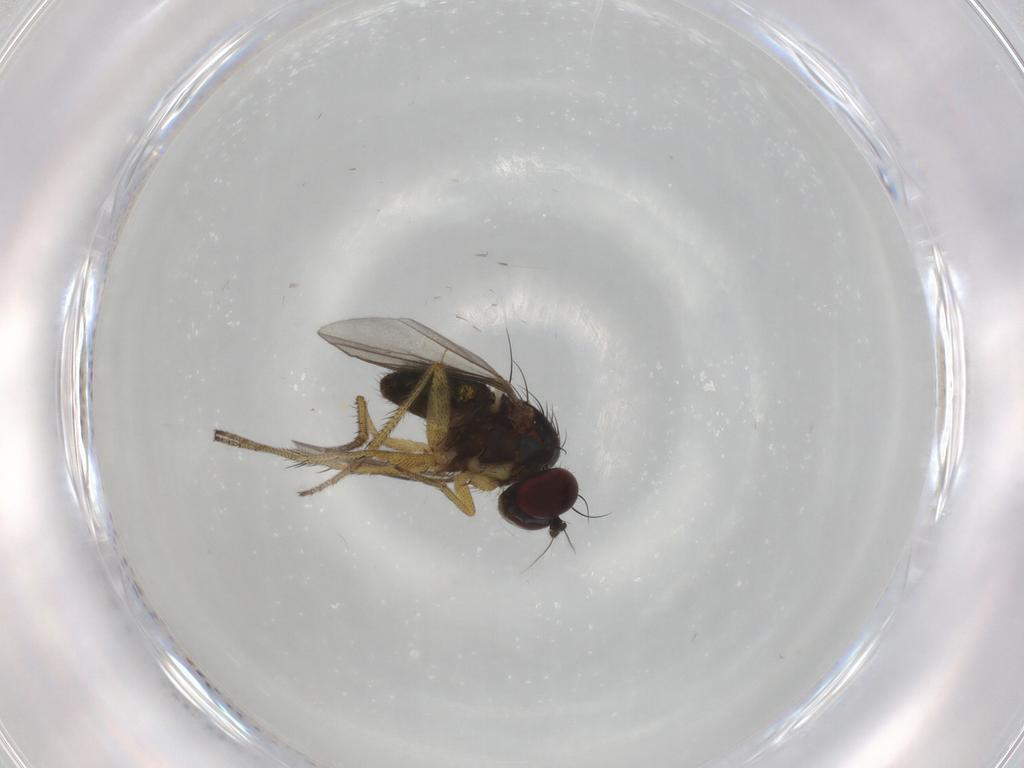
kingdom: Animalia
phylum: Arthropoda
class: Insecta
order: Diptera
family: Dolichopodidae
